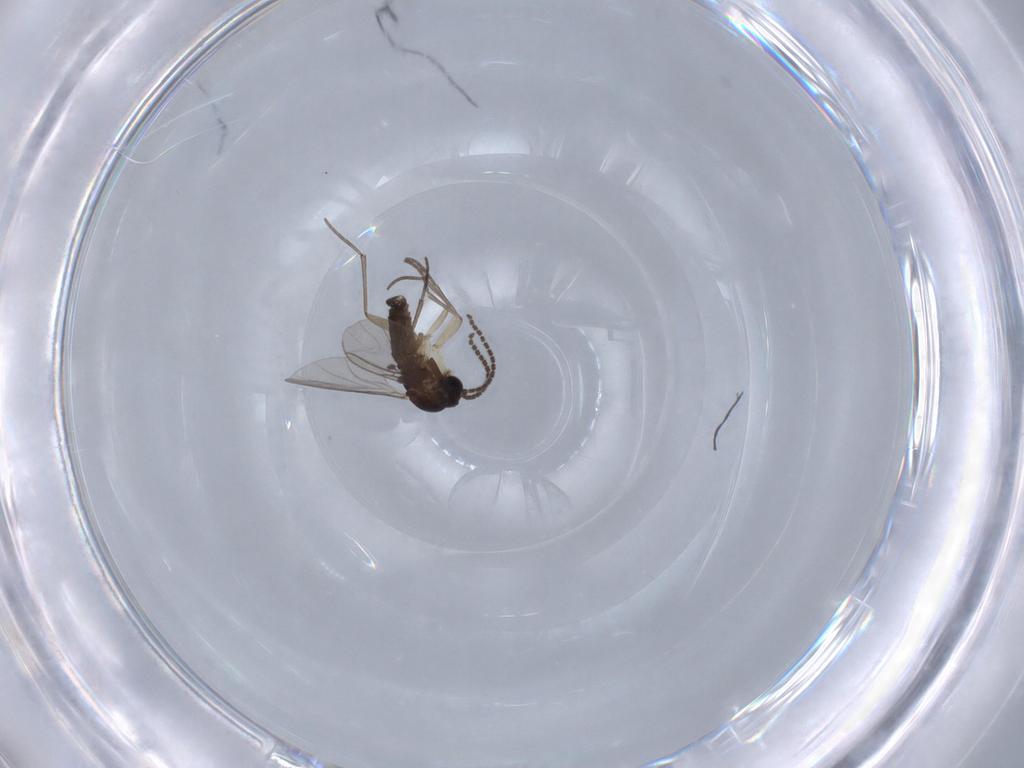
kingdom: Animalia
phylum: Arthropoda
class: Insecta
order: Diptera
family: Sciaridae
